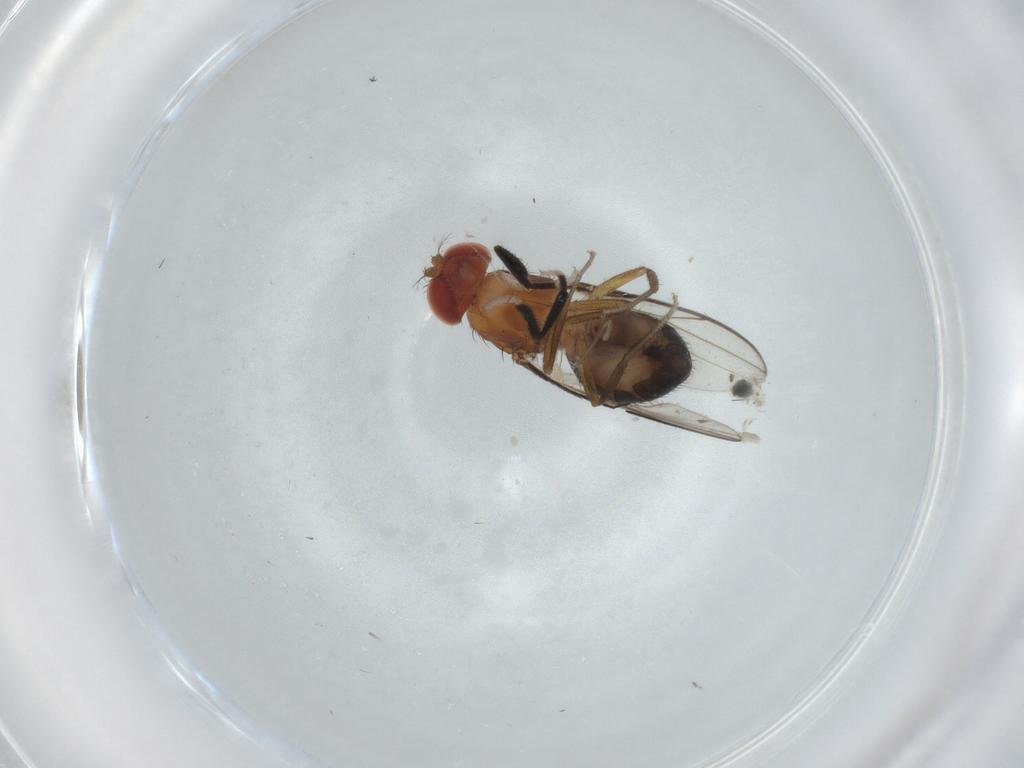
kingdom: Animalia
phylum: Arthropoda
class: Insecta
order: Diptera
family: Drosophilidae
